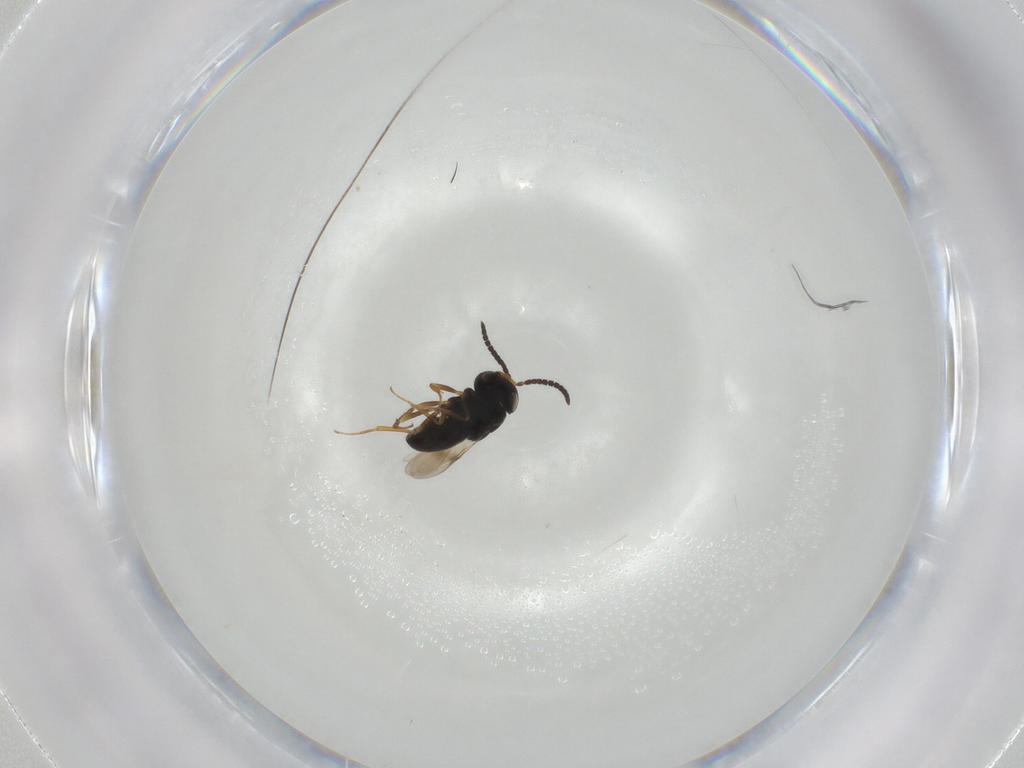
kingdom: Animalia
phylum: Arthropoda
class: Insecta
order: Hymenoptera
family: Scelionidae
